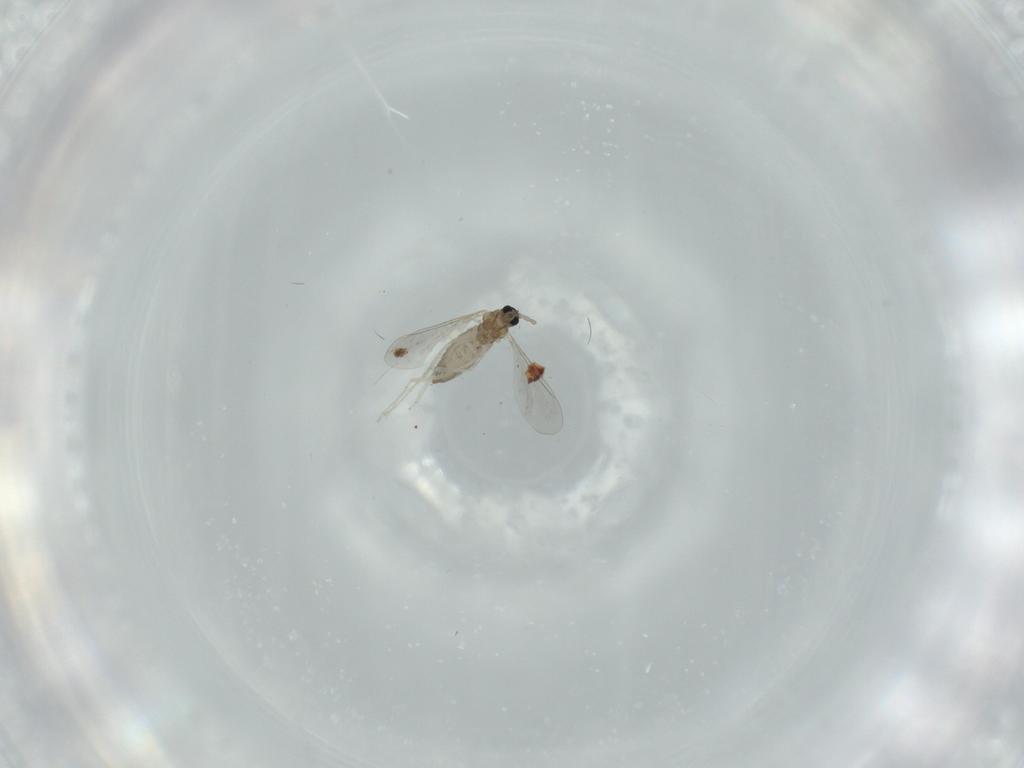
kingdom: Animalia
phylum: Arthropoda
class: Insecta
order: Diptera
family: Cecidomyiidae
